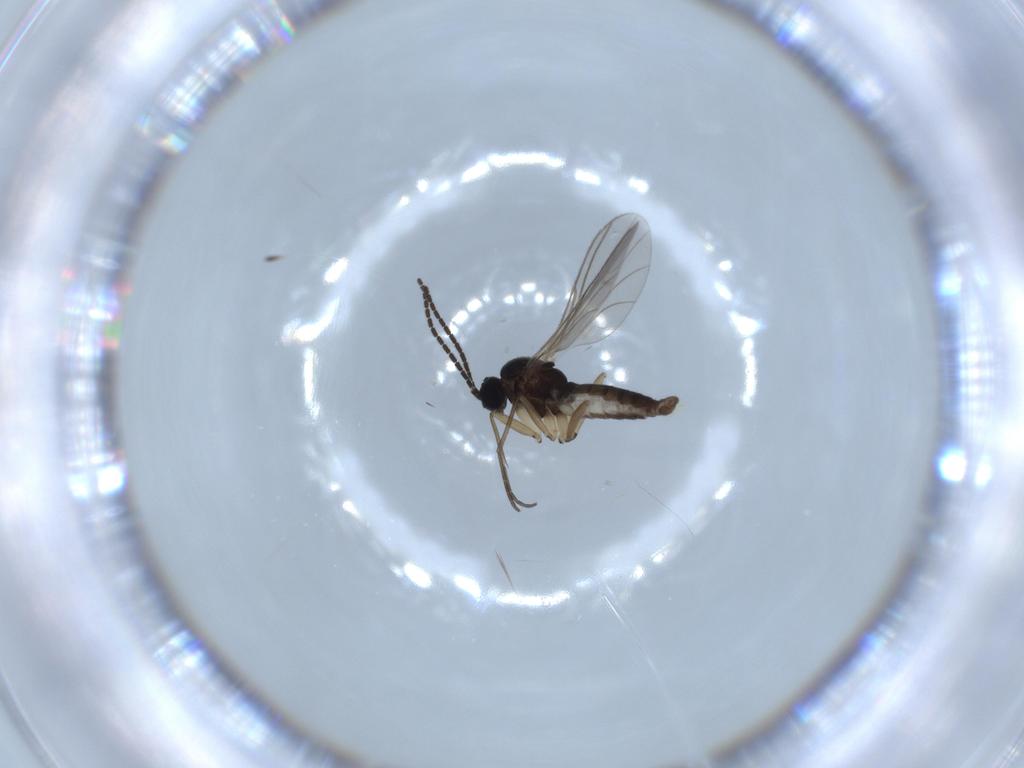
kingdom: Animalia
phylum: Arthropoda
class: Insecta
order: Diptera
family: Sciaridae
